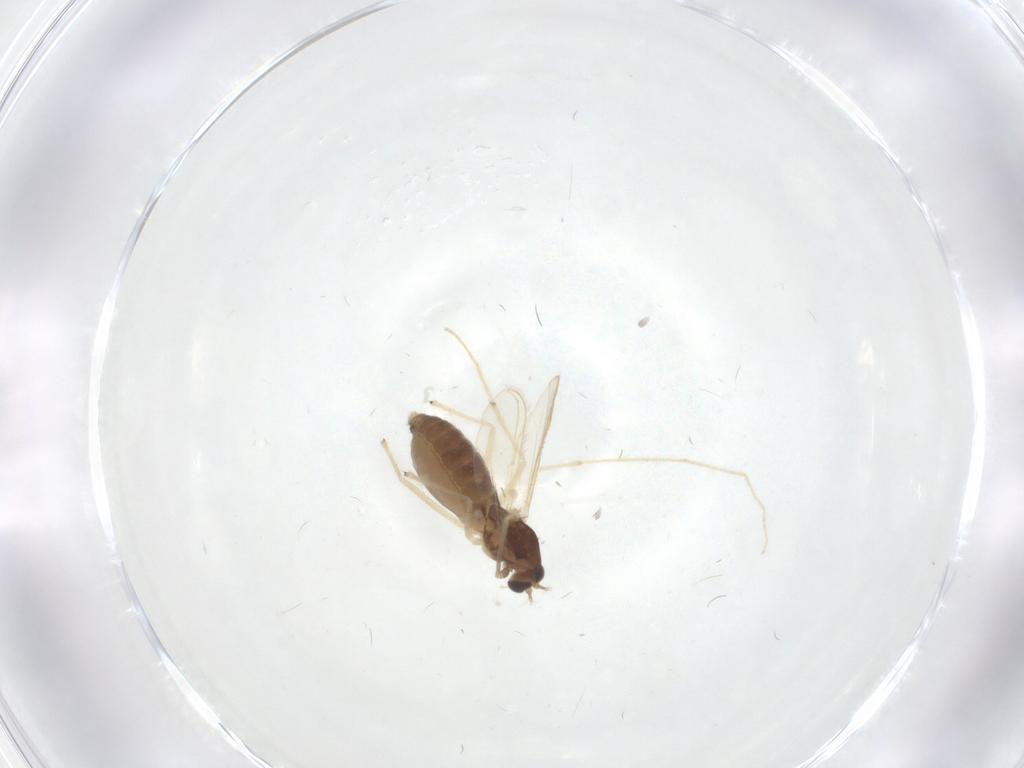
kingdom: Animalia
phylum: Arthropoda
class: Insecta
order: Diptera
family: Chironomidae
